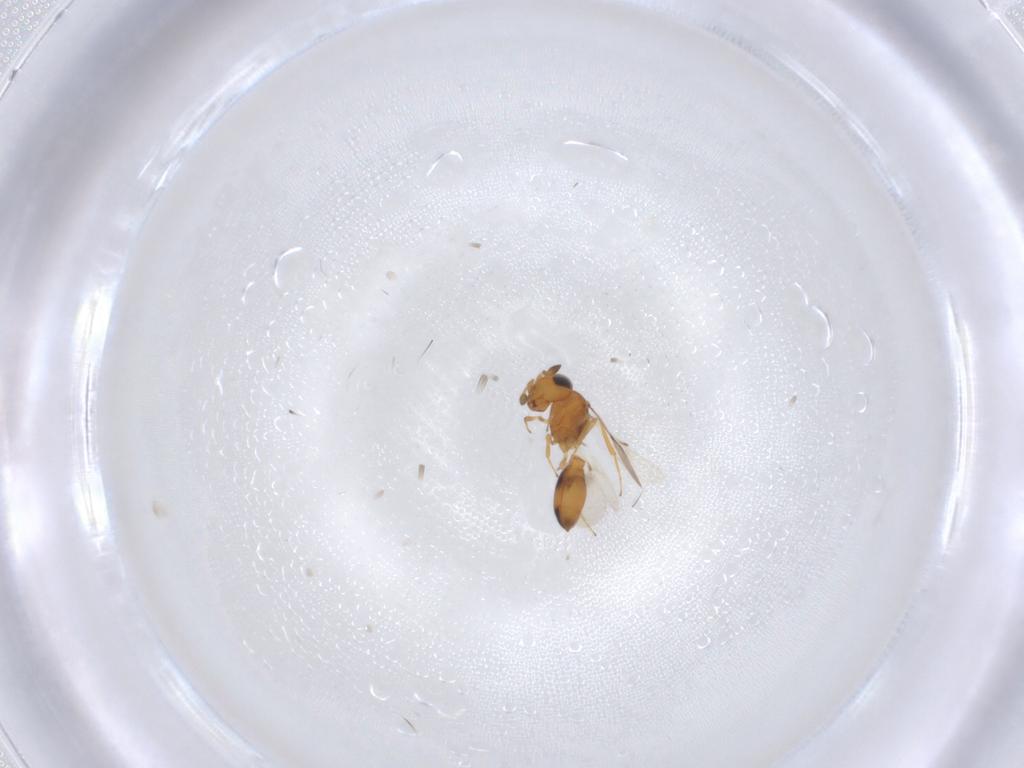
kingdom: Animalia
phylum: Arthropoda
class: Insecta
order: Hymenoptera
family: Scelionidae
